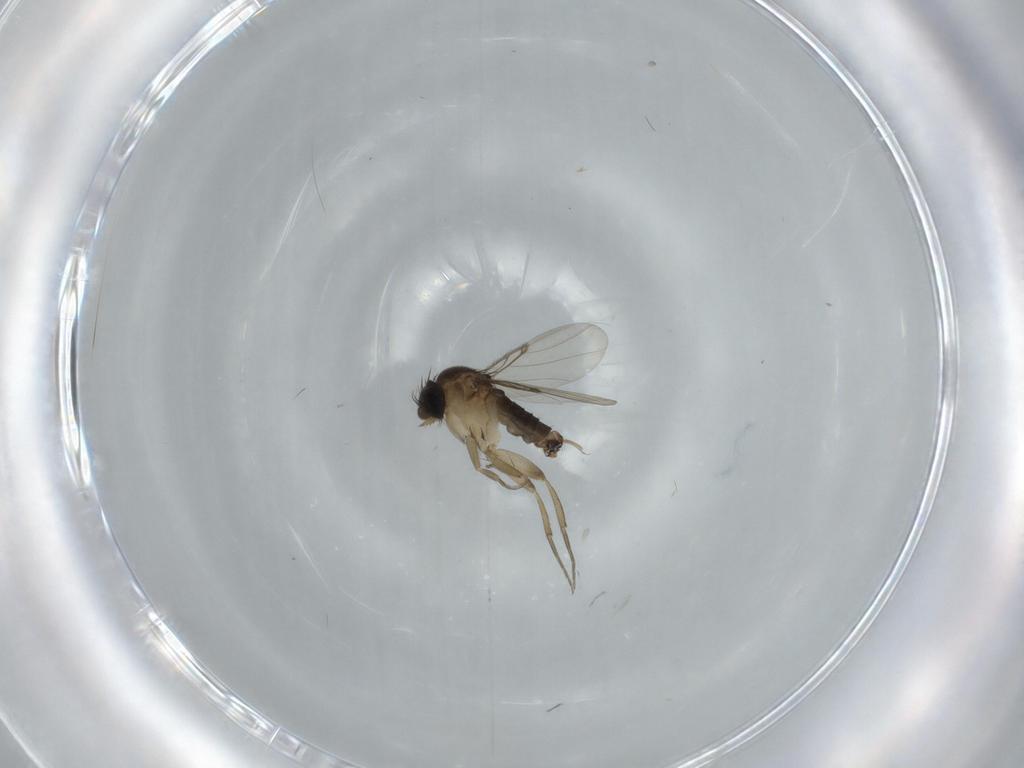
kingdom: Animalia
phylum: Arthropoda
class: Insecta
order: Diptera
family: Phoridae
